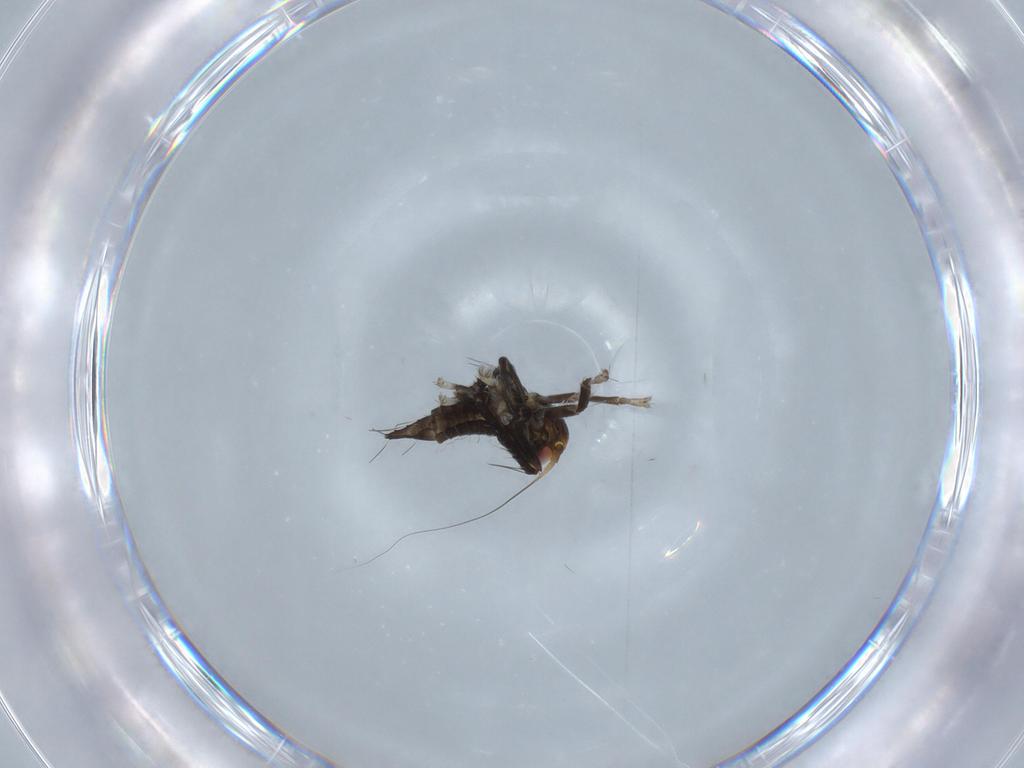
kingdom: Animalia
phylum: Arthropoda
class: Insecta
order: Hemiptera
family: Cicadellidae
